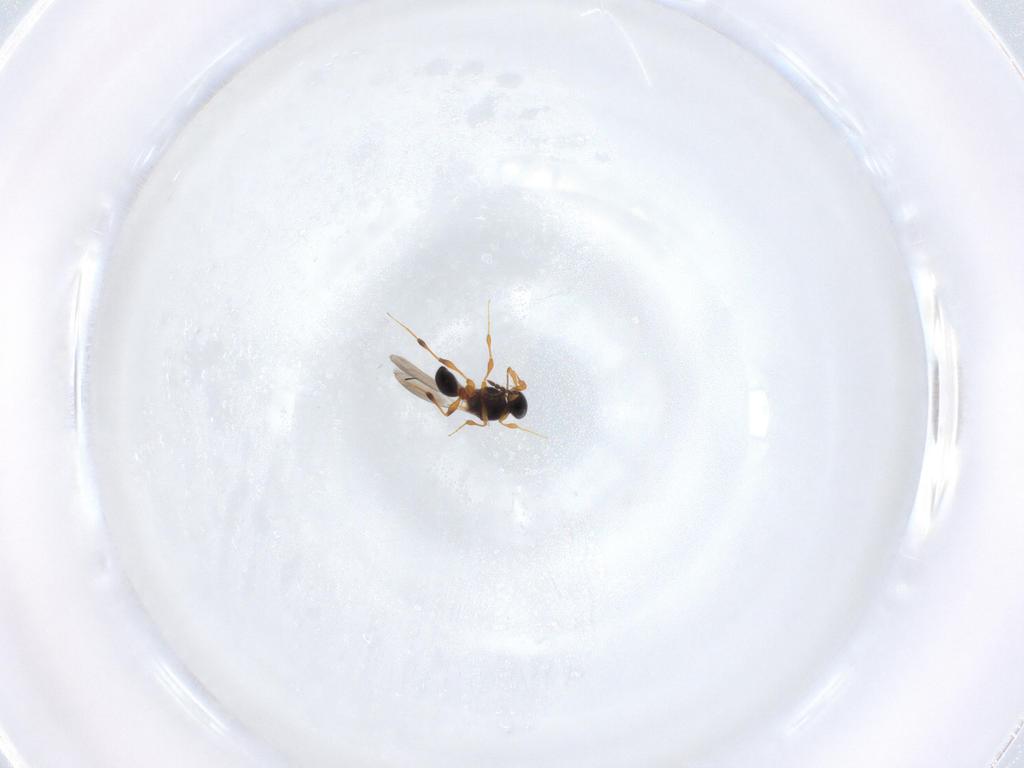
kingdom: Animalia
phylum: Arthropoda
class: Insecta
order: Hymenoptera
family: Platygastridae
